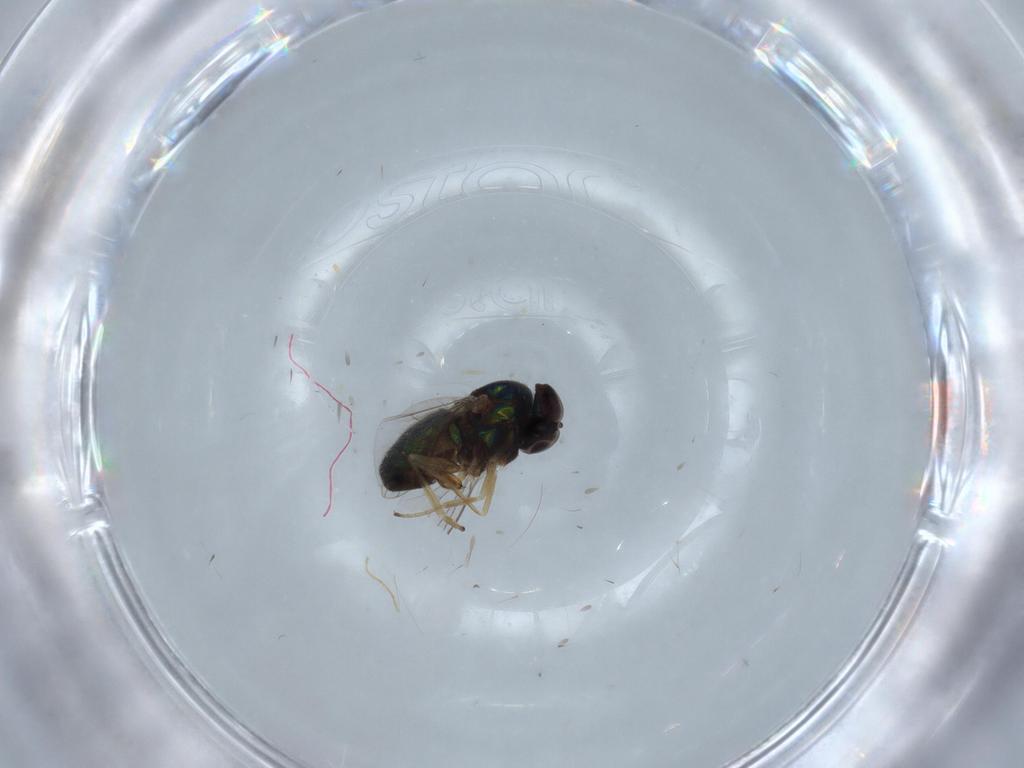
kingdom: Animalia
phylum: Arthropoda
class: Insecta
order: Diptera
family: Dolichopodidae
